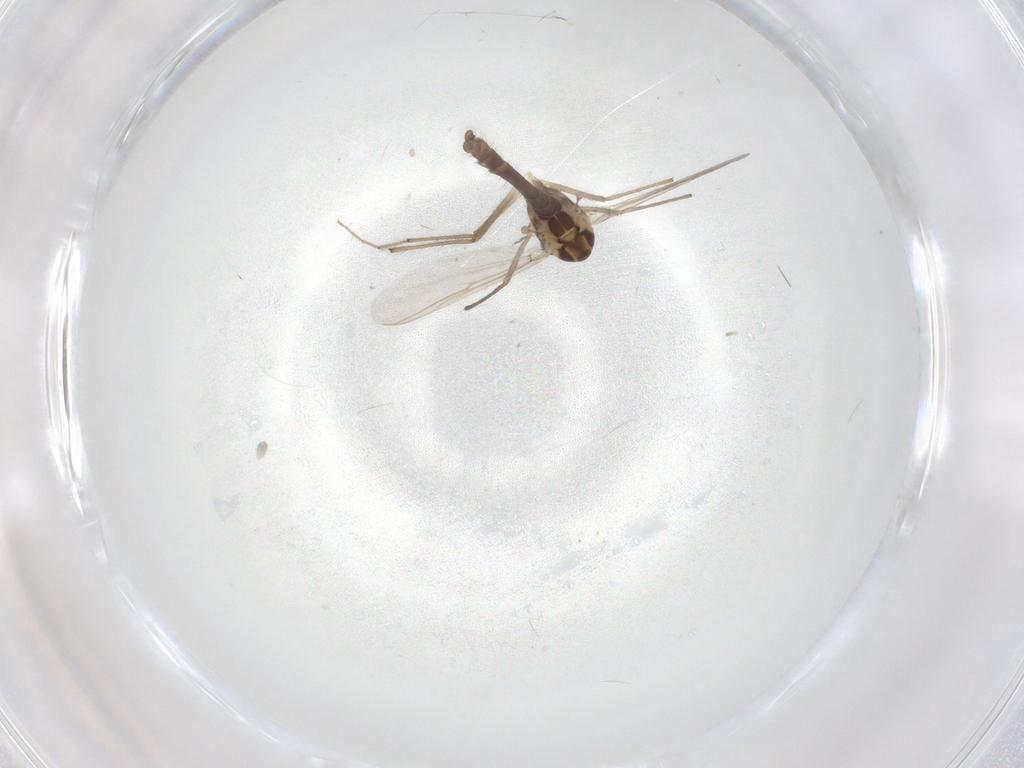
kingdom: Animalia
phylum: Arthropoda
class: Insecta
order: Diptera
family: Chironomidae
